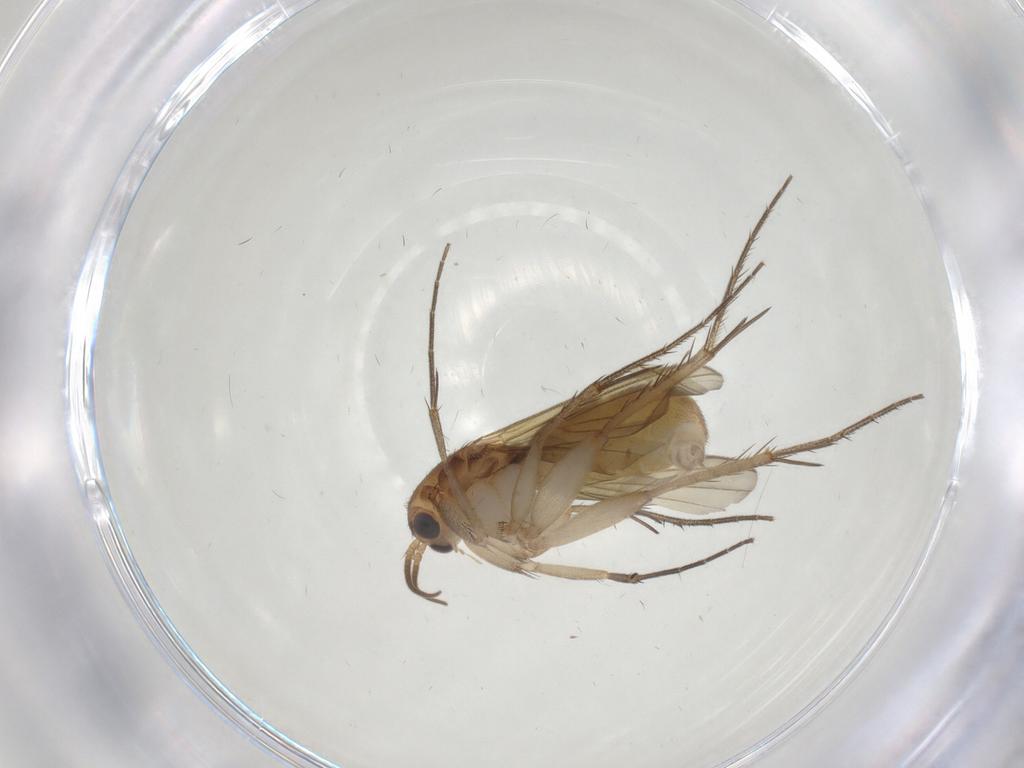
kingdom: Animalia
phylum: Arthropoda
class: Insecta
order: Diptera
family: Mycetophilidae
